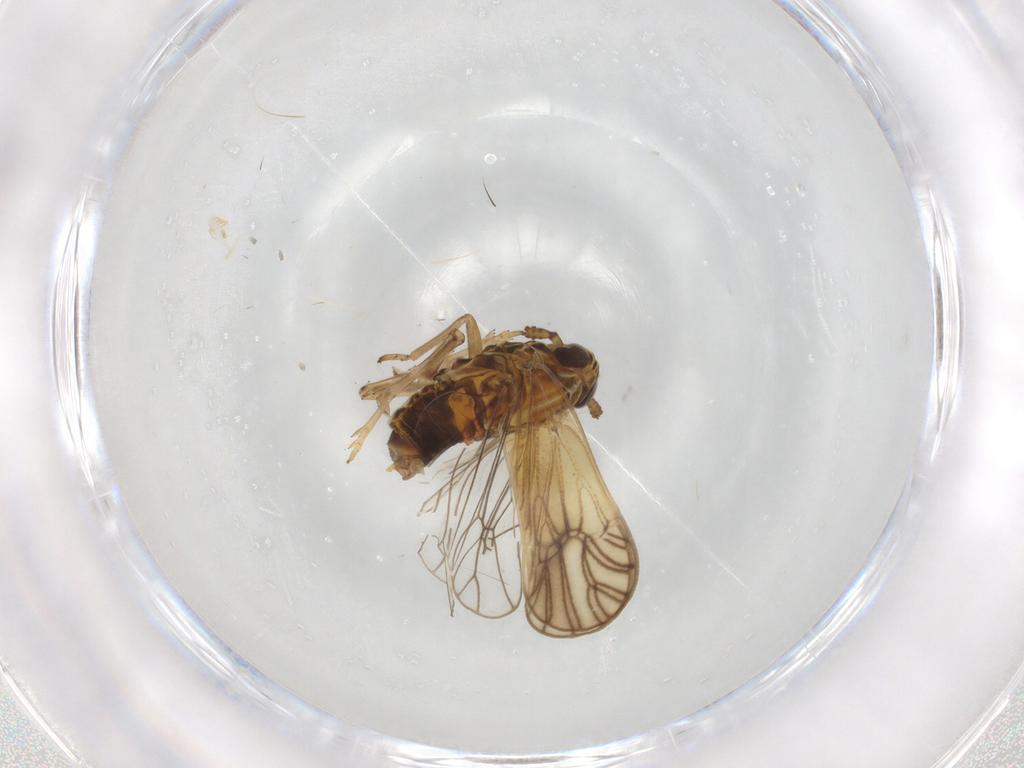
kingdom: Animalia
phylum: Arthropoda
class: Insecta
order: Hemiptera
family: Delphacidae
